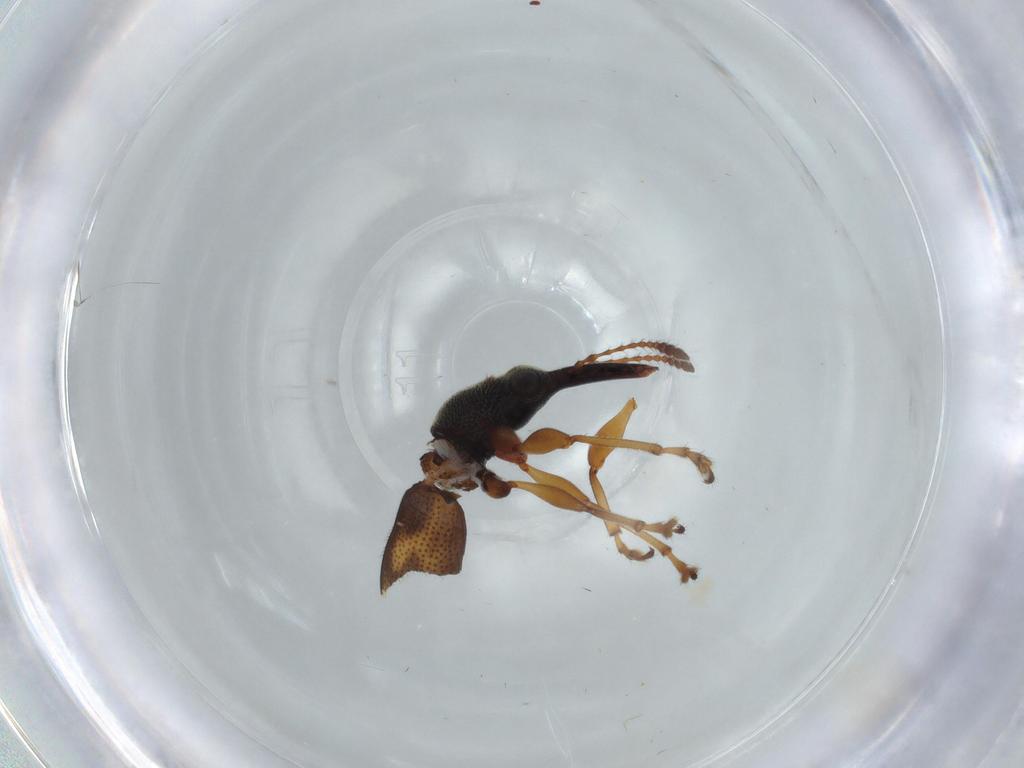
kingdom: Animalia
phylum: Arthropoda
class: Insecta
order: Coleoptera
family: Attelabidae
